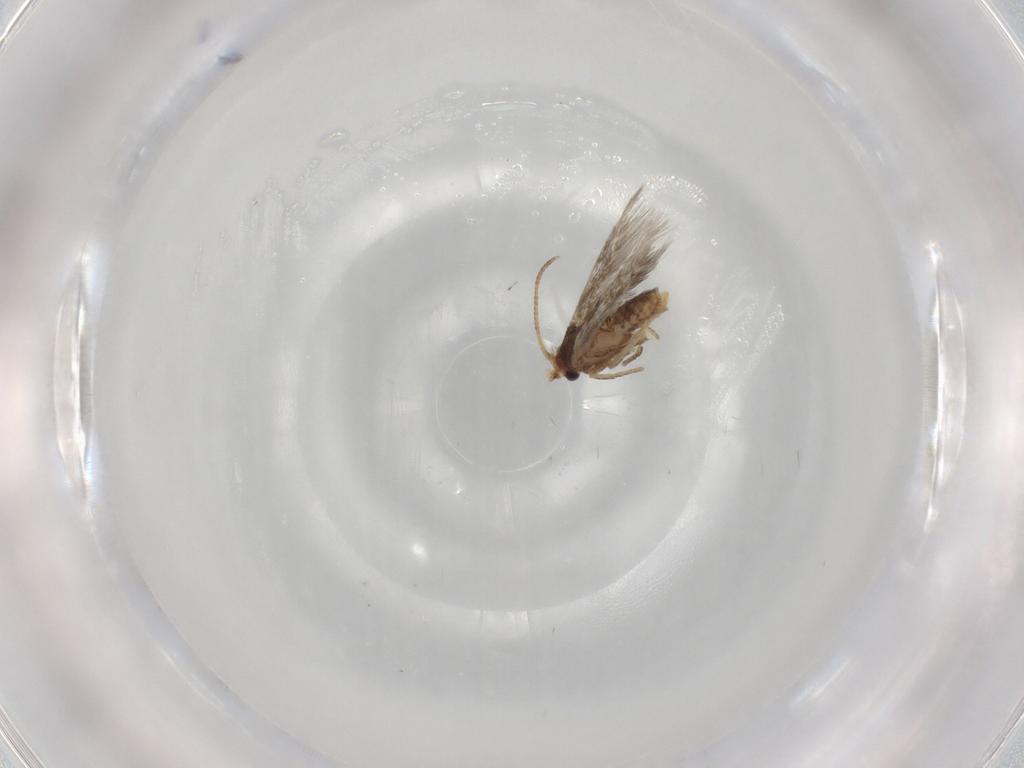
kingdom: Animalia
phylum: Arthropoda
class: Insecta
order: Lepidoptera
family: Nepticulidae
